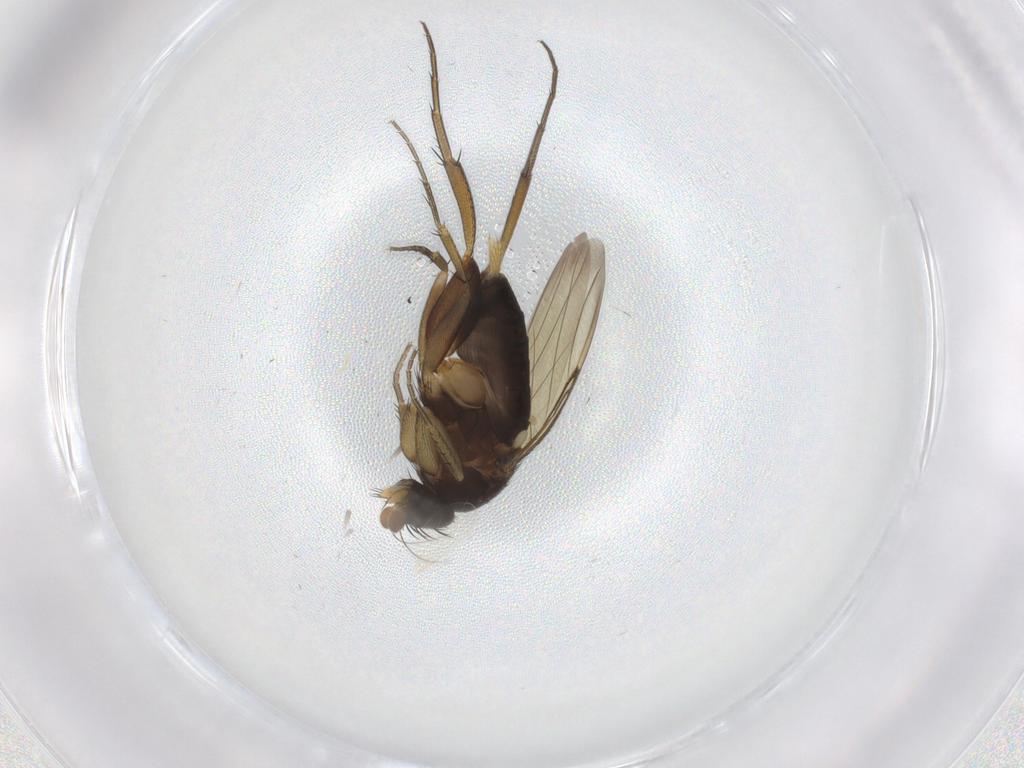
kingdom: Animalia
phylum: Arthropoda
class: Insecta
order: Diptera
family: Phoridae
